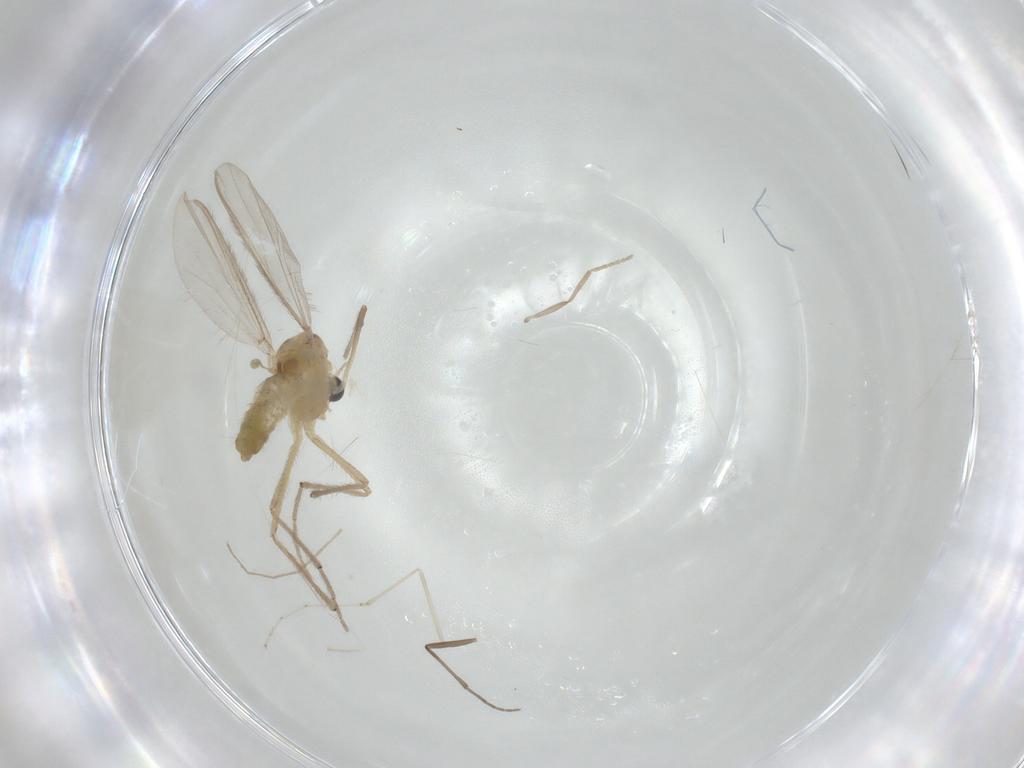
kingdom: Animalia
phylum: Arthropoda
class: Insecta
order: Diptera
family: Chironomidae
